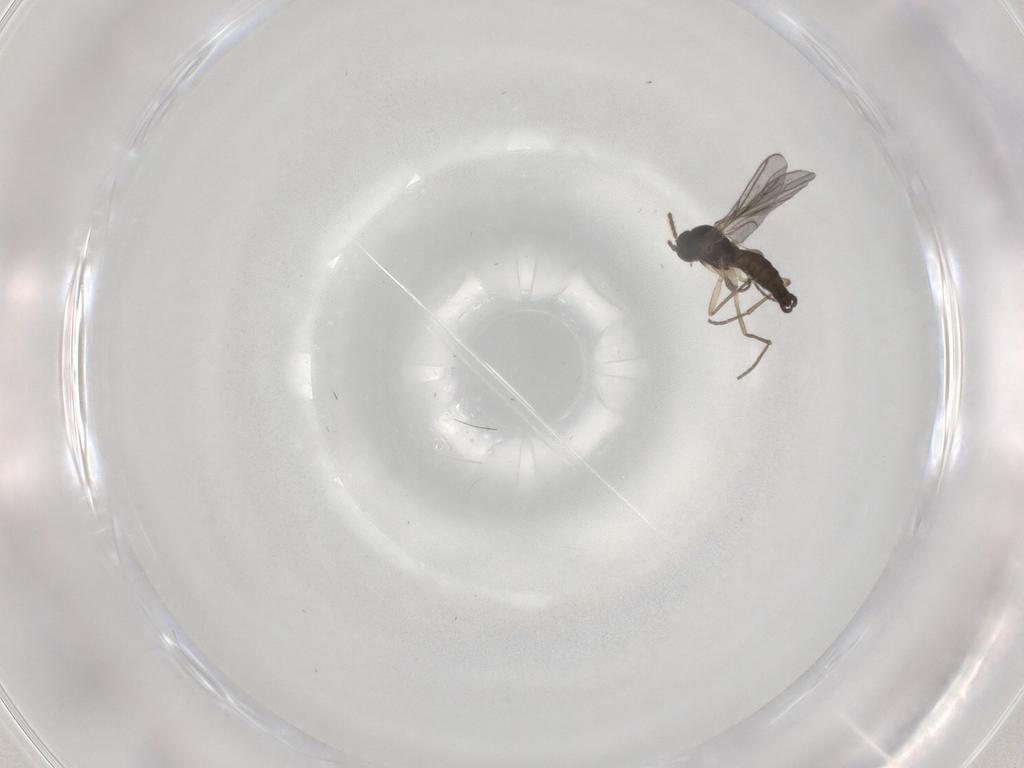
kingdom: Animalia
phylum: Arthropoda
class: Insecta
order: Diptera
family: Sciaridae
